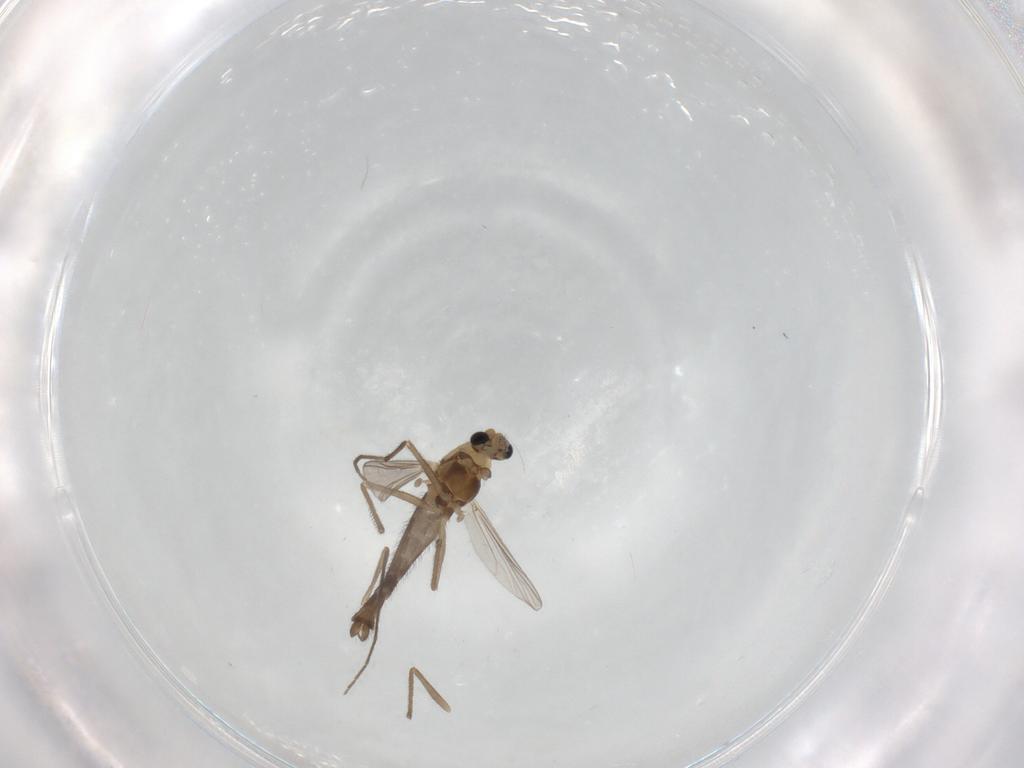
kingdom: Animalia
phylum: Arthropoda
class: Insecta
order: Diptera
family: Chironomidae
